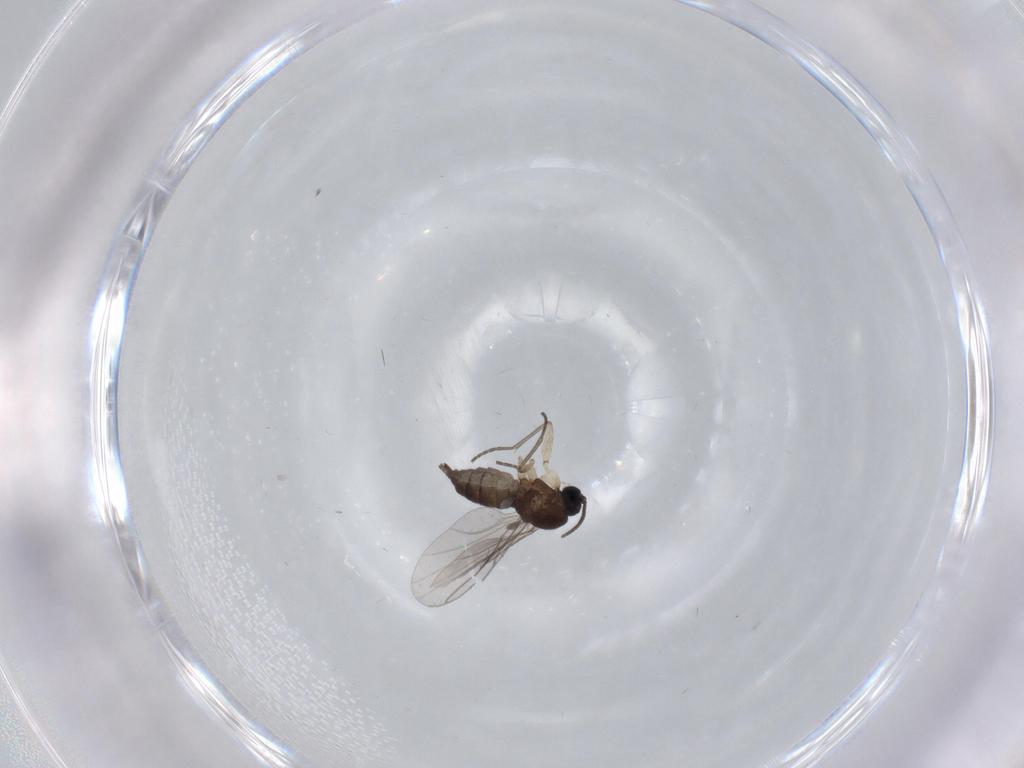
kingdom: Animalia
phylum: Arthropoda
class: Insecta
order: Diptera
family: Sciaridae
